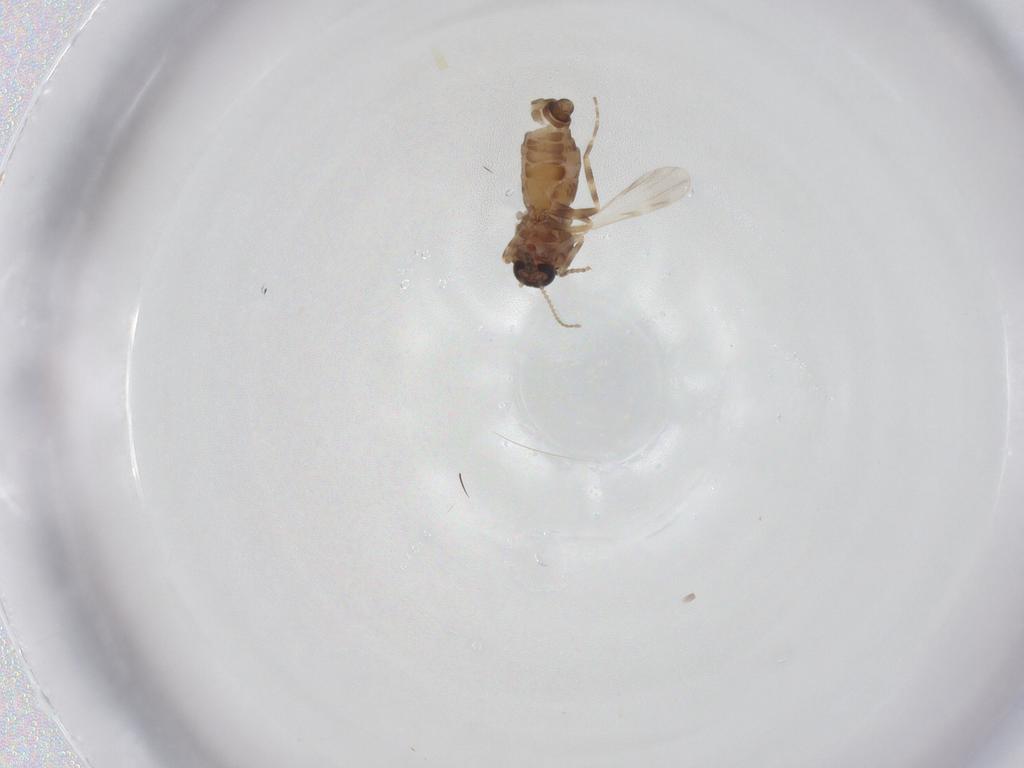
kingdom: Animalia
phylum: Arthropoda
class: Insecta
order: Diptera
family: Ceratopogonidae
